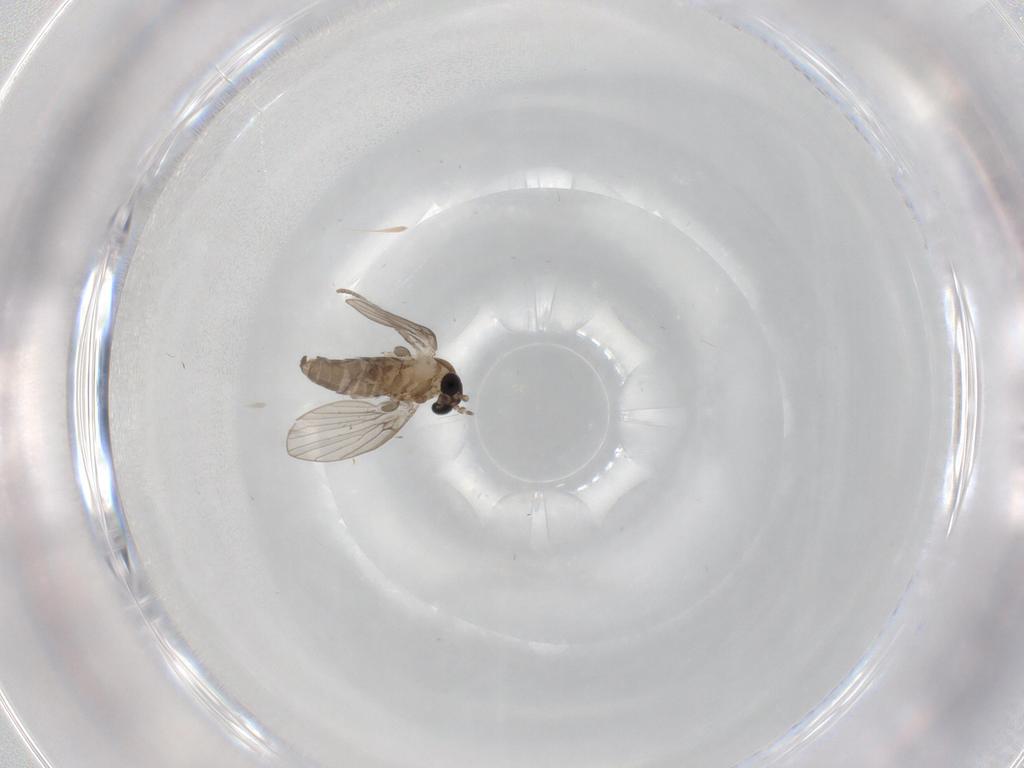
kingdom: Animalia
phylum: Arthropoda
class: Insecta
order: Diptera
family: Psychodidae
